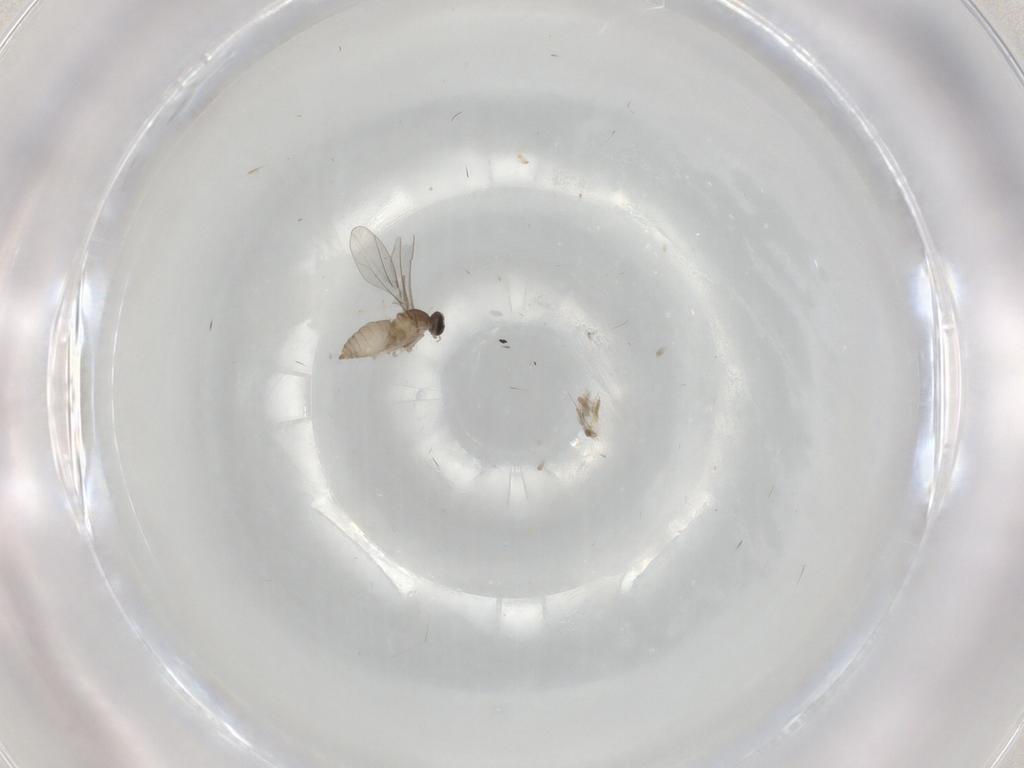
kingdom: Animalia
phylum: Arthropoda
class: Insecta
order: Diptera
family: Cecidomyiidae
